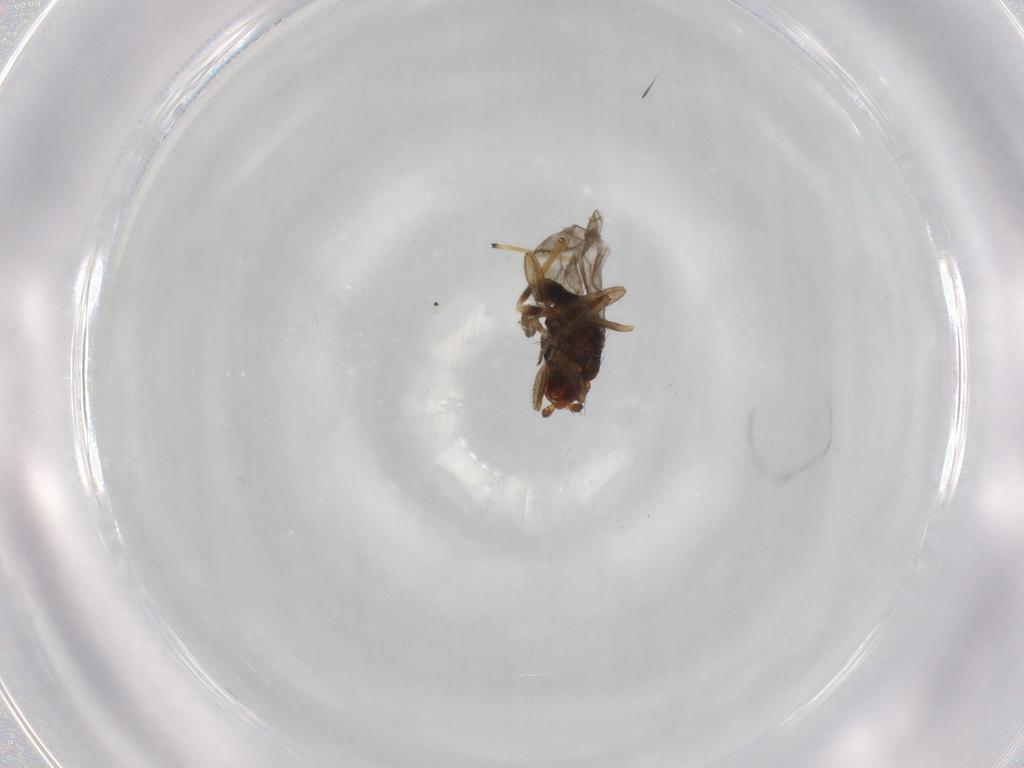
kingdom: Animalia
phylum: Arthropoda
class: Insecta
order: Diptera
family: Sphaeroceridae
